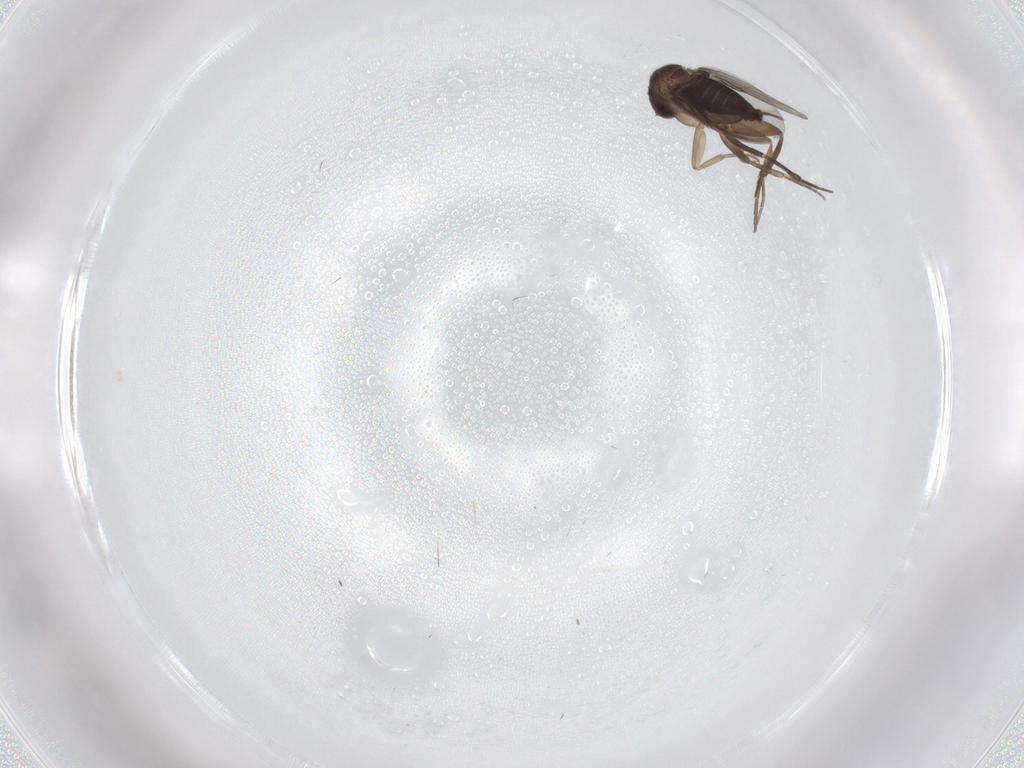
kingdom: Animalia
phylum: Arthropoda
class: Insecta
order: Diptera
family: Phoridae
